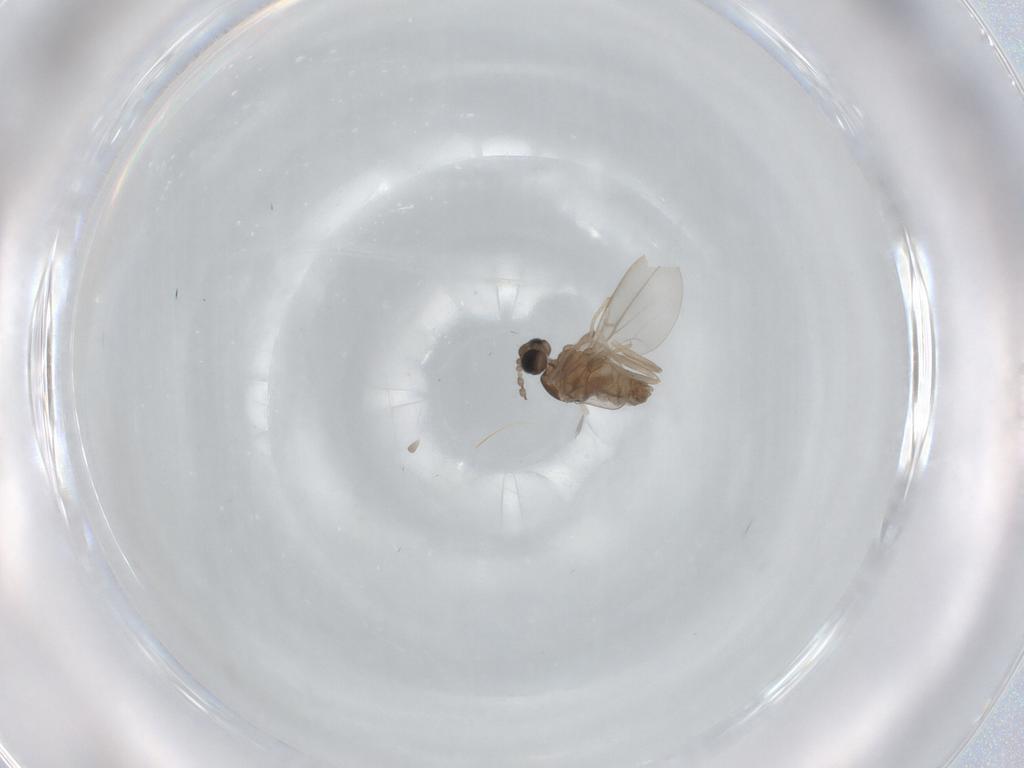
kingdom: Animalia
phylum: Arthropoda
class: Insecta
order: Diptera
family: Cecidomyiidae
